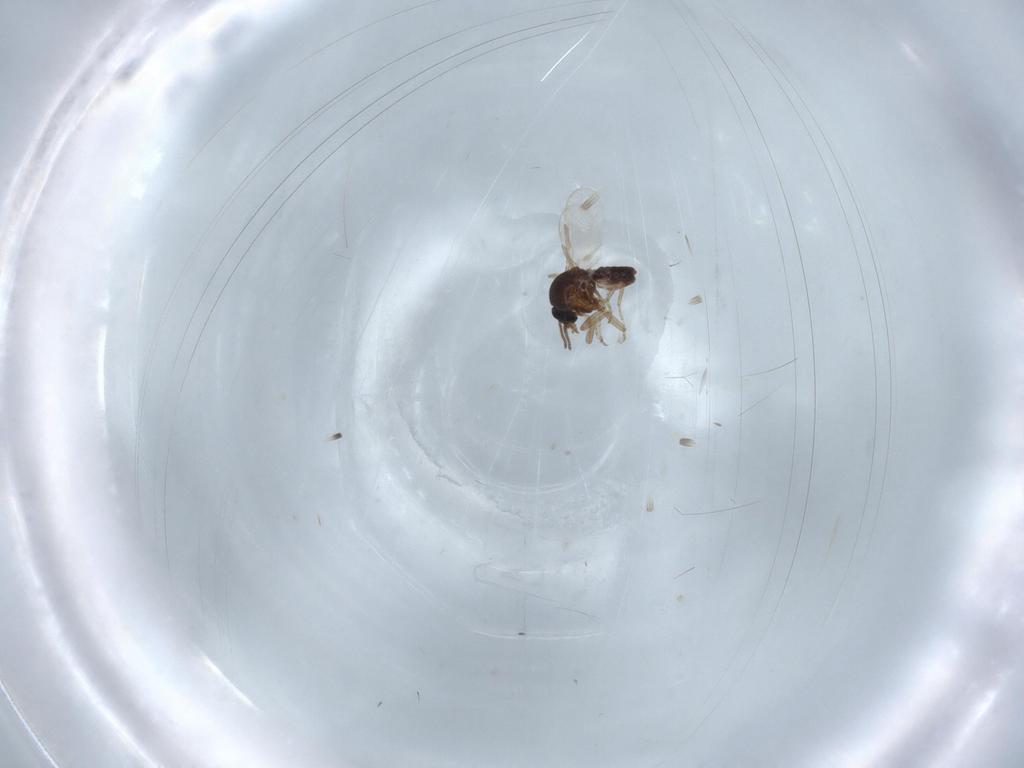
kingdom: Animalia
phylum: Arthropoda
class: Insecta
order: Diptera
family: Ceratopogonidae
